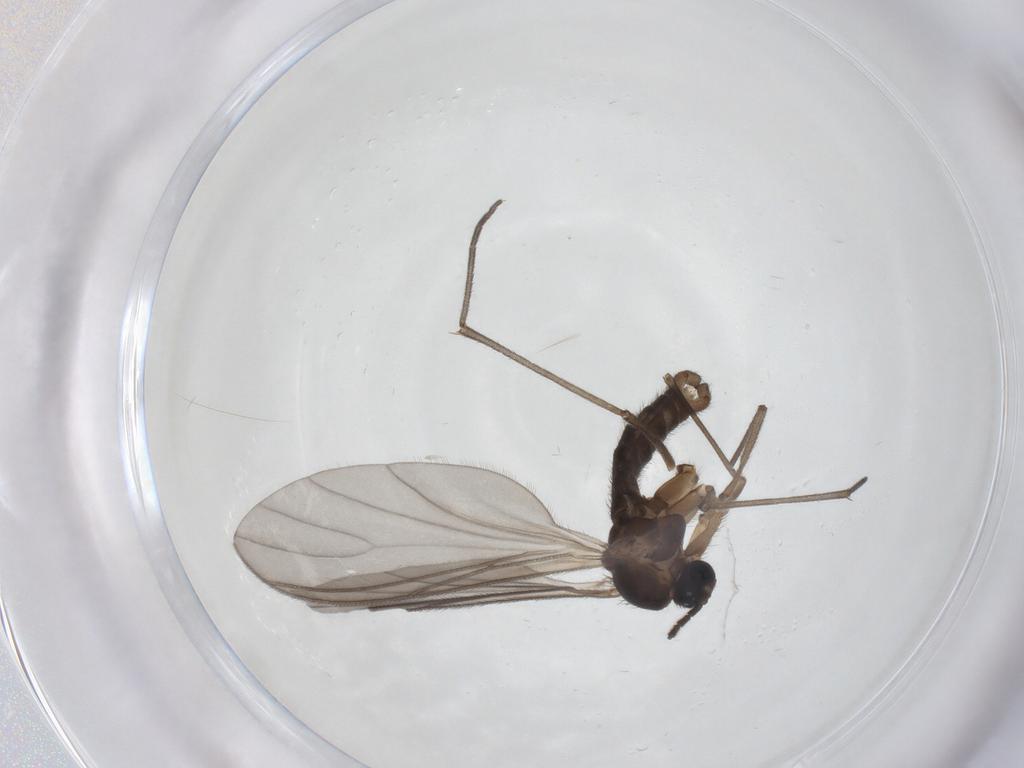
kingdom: Animalia
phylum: Arthropoda
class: Insecta
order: Diptera
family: Sciaridae
